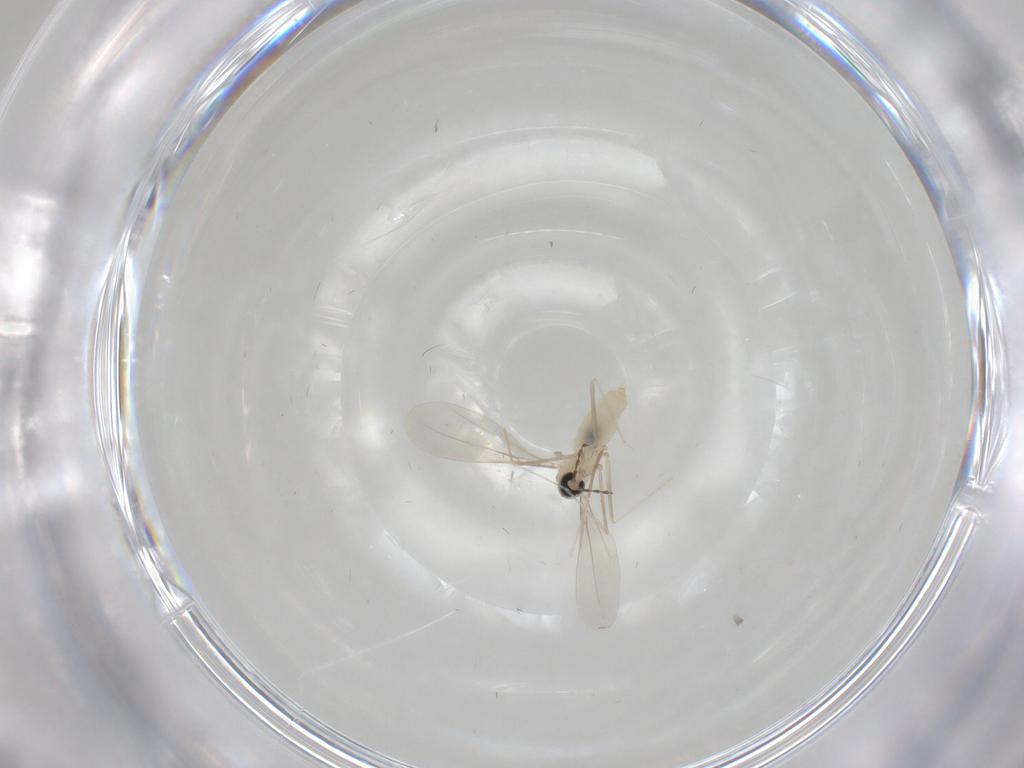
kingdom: Animalia
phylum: Arthropoda
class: Insecta
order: Diptera
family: Cecidomyiidae
